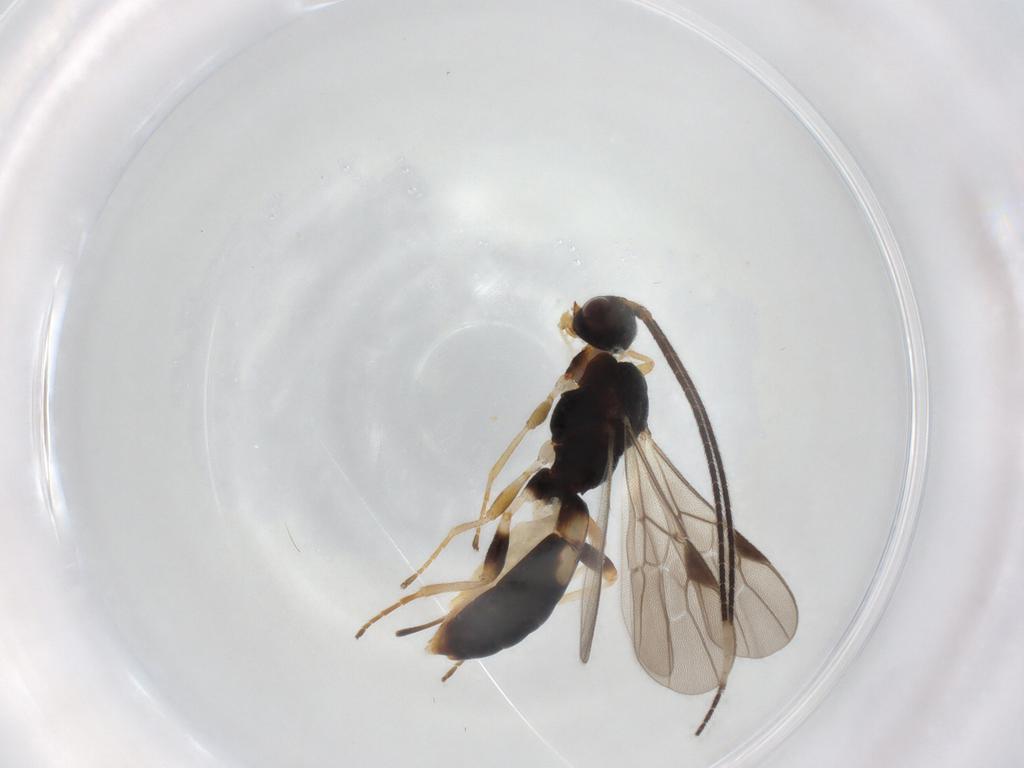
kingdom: Animalia
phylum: Arthropoda
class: Insecta
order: Hymenoptera
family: Braconidae
